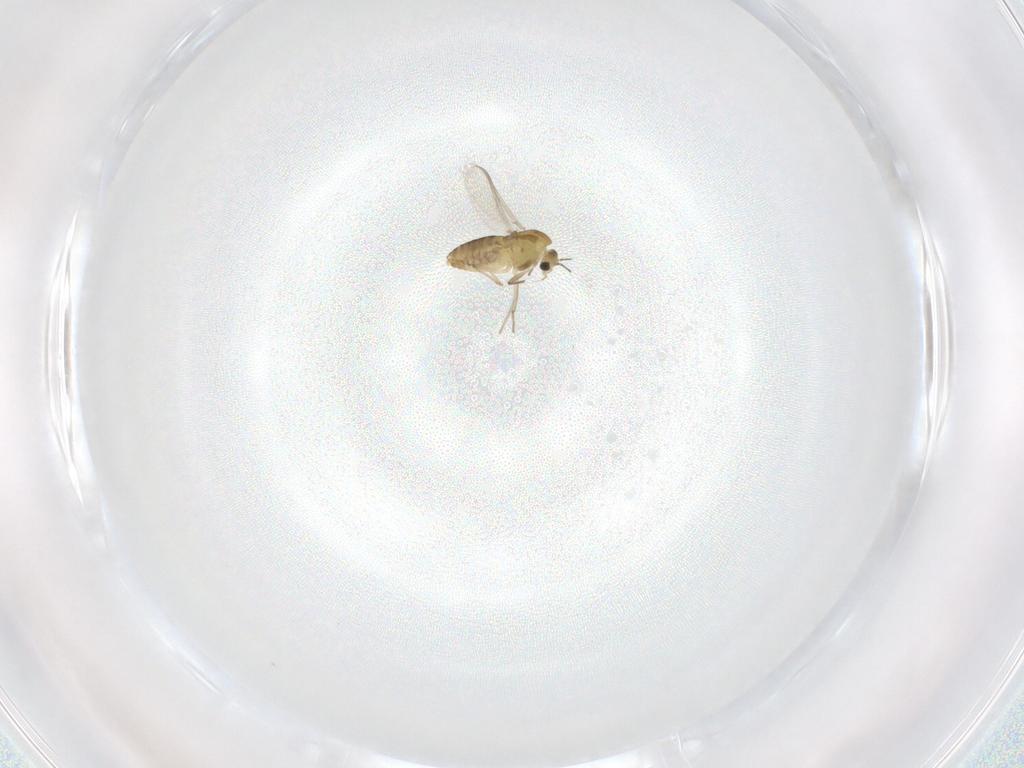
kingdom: Animalia
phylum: Arthropoda
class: Insecta
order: Diptera
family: Chironomidae
